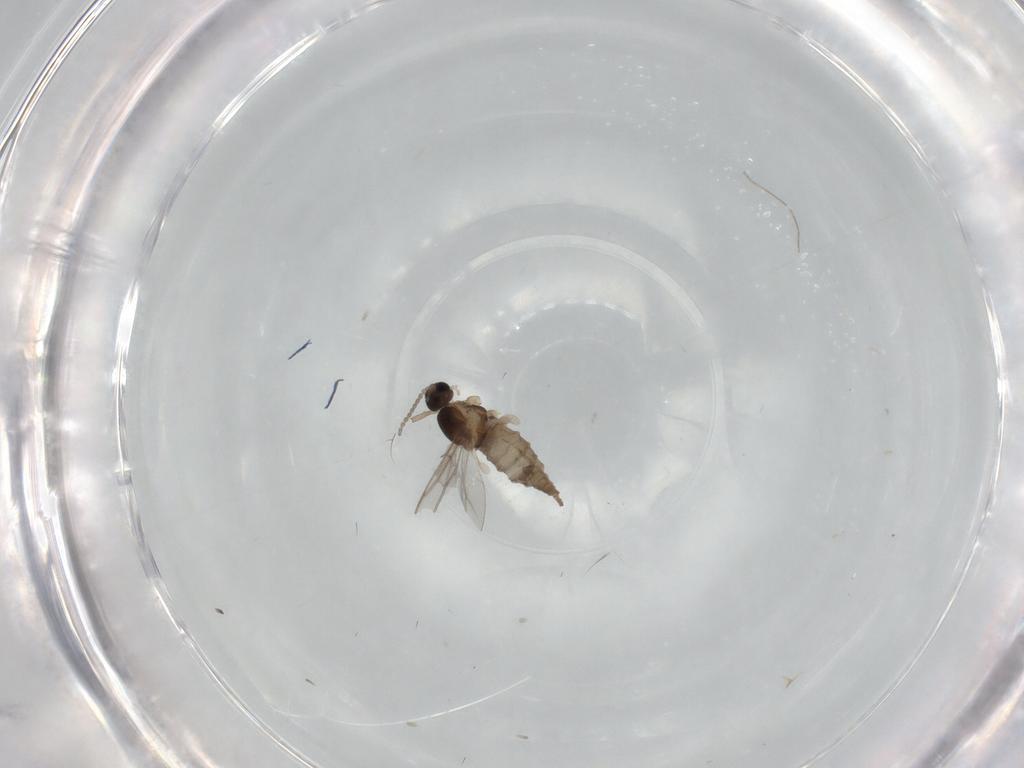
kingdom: Animalia
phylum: Arthropoda
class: Insecta
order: Diptera
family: Cecidomyiidae
